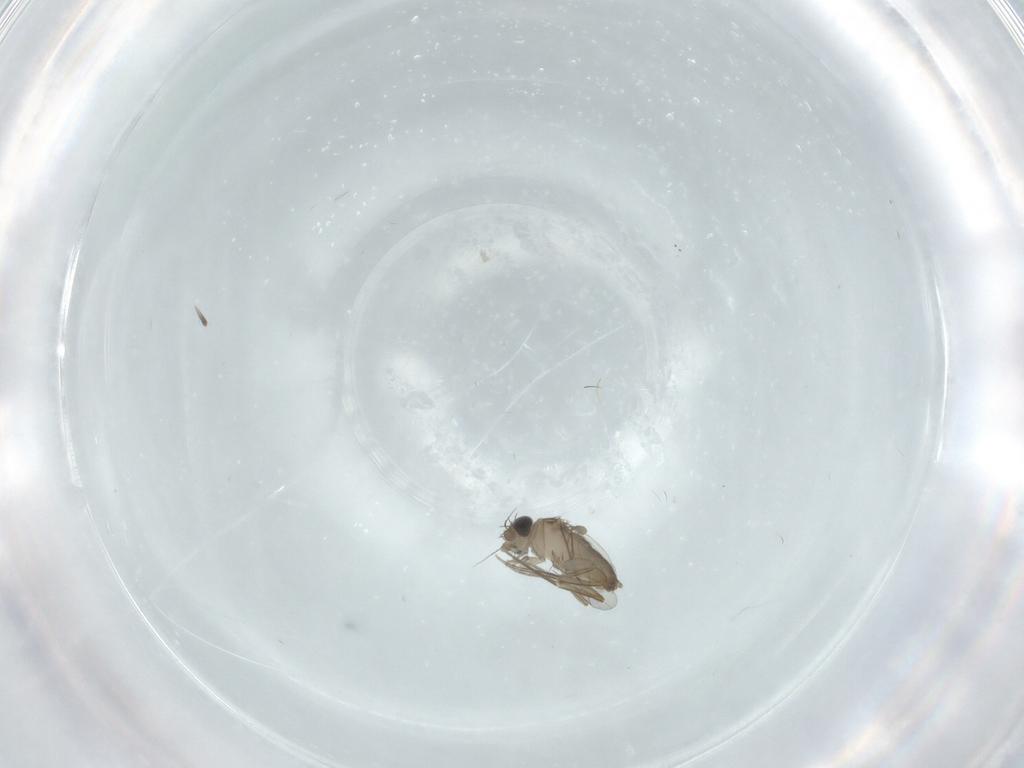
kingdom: Animalia
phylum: Arthropoda
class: Insecta
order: Diptera
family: Phoridae
